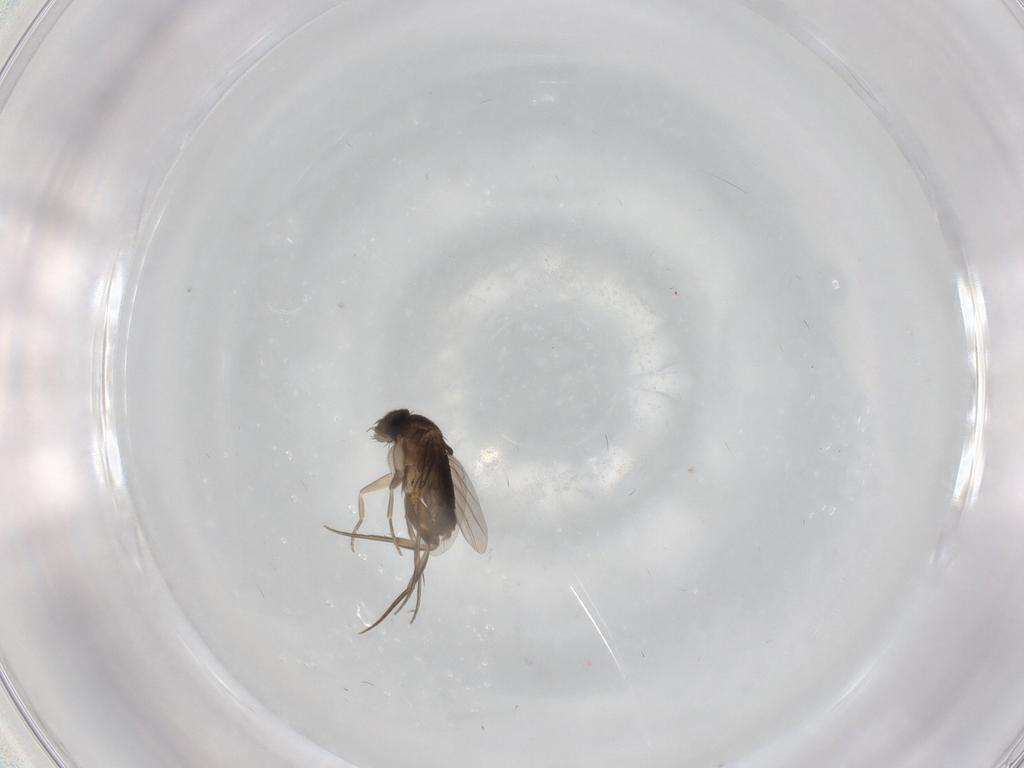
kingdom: Animalia
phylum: Arthropoda
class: Insecta
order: Diptera
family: Phoridae
